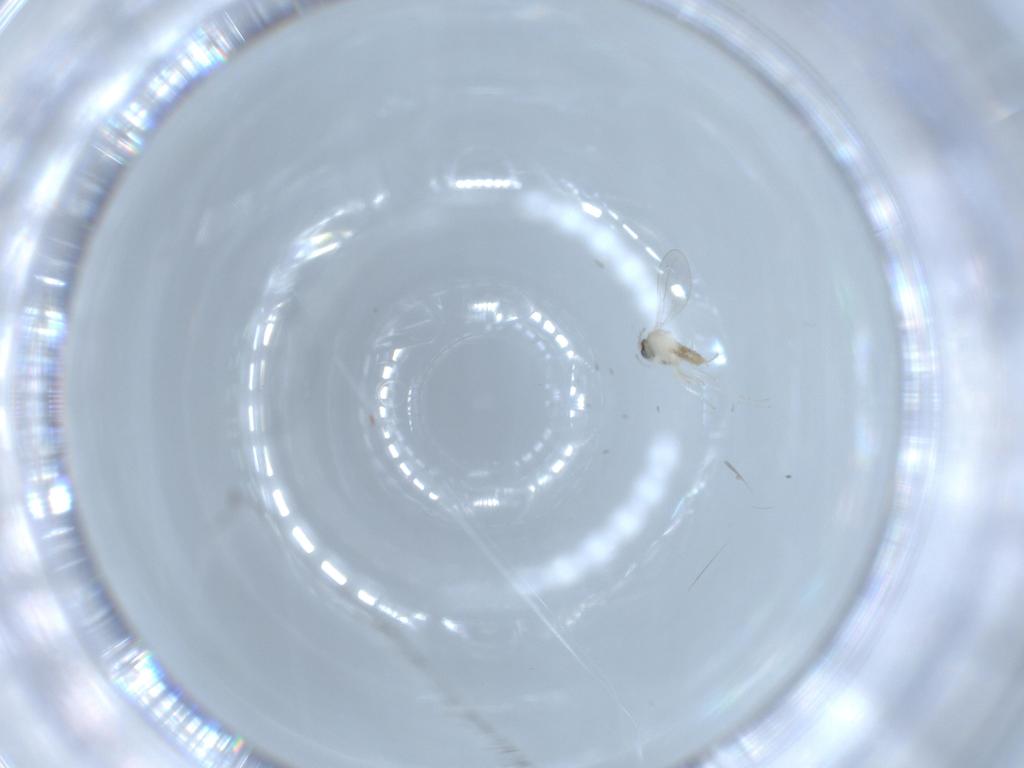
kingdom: Animalia
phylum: Arthropoda
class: Insecta
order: Diptera
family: Cecidomyiidae
